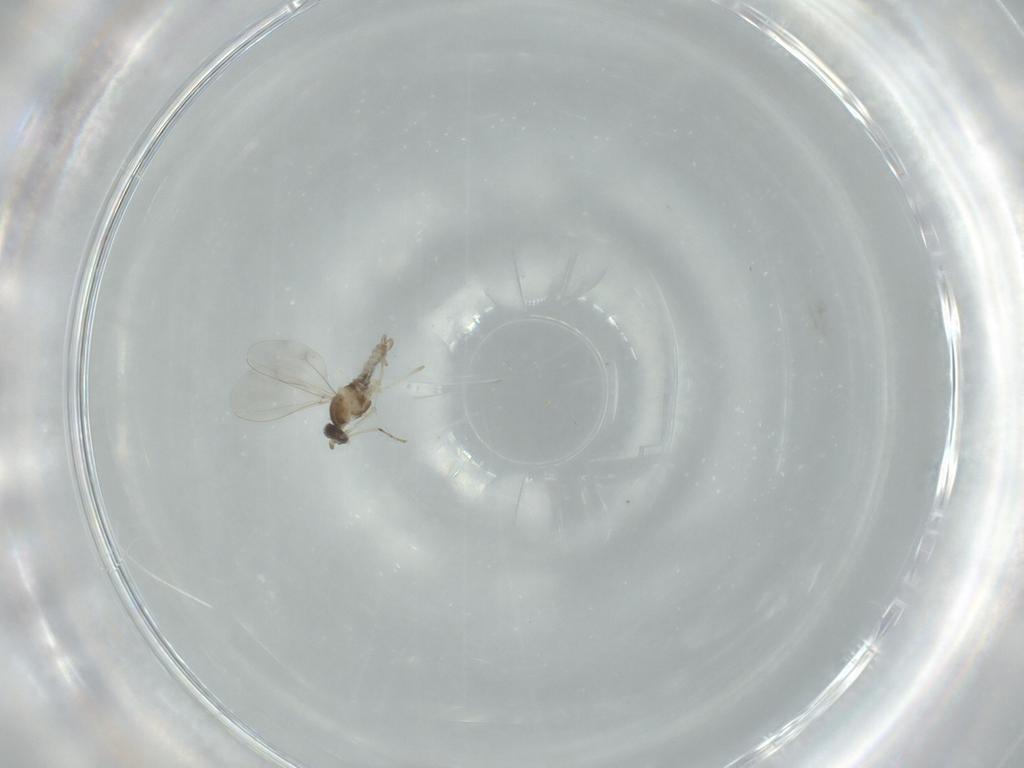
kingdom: Animalia
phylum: Arthropoda
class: Insecta
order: Diptera
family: Cecidomyiidae
